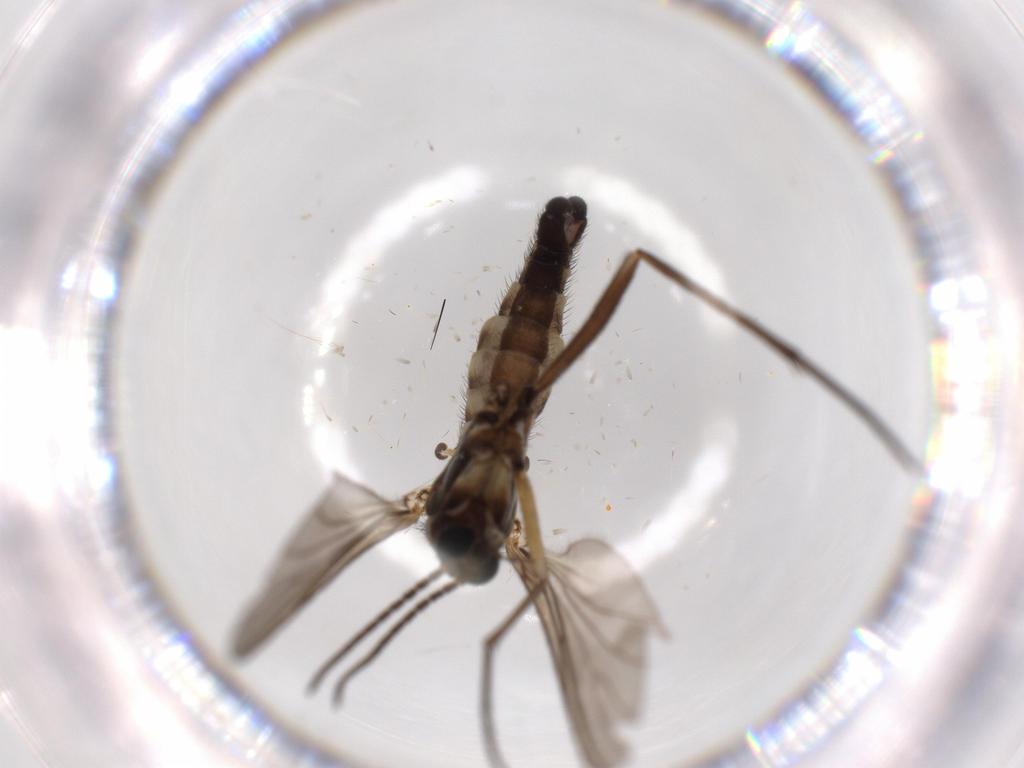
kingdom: Animalia
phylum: Arthropoda
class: Insecta
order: Diptera
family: Sciaridae
